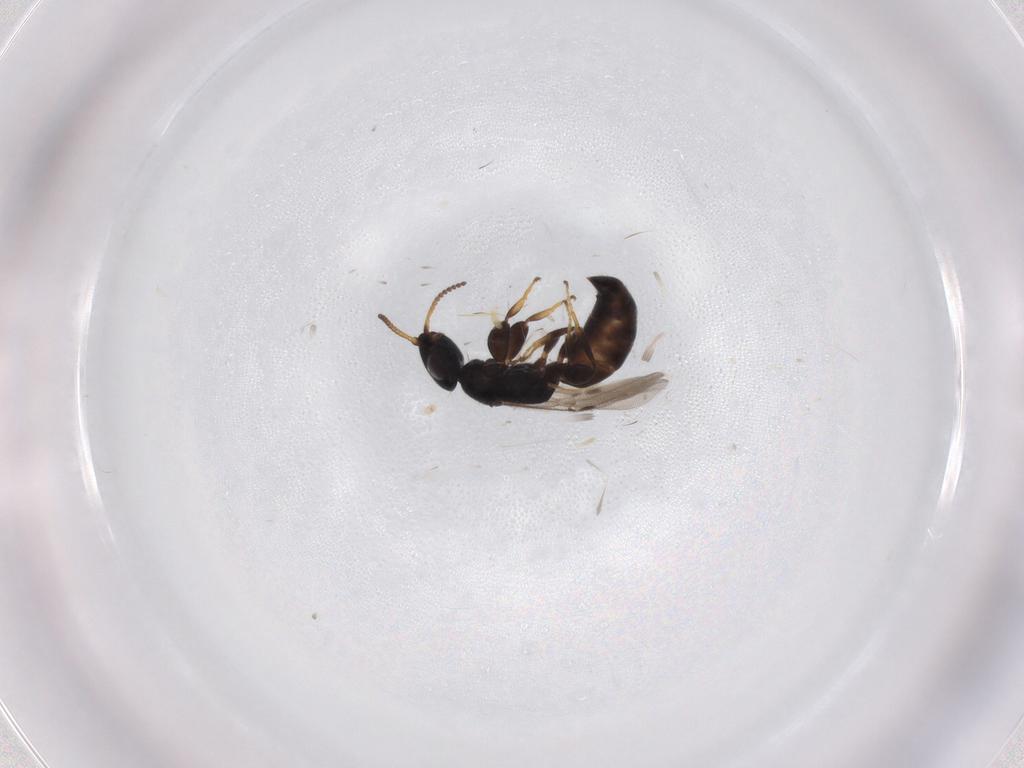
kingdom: Animalia
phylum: Arthropoda
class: Insecta
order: Hymenoptera
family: Bethylidae
